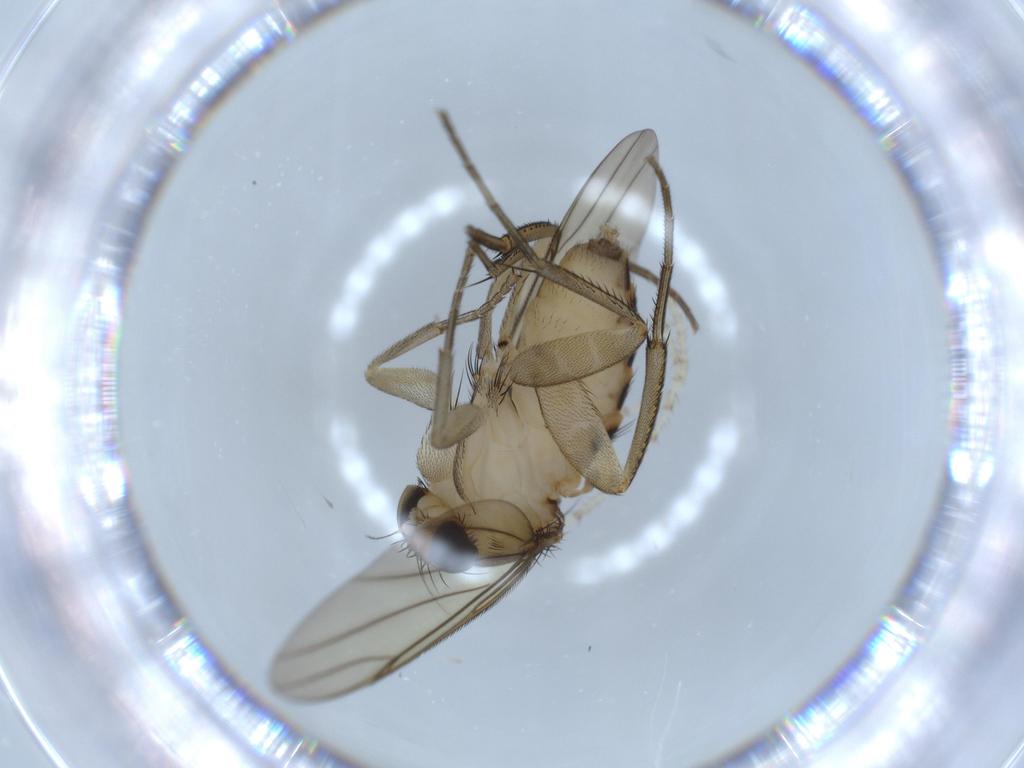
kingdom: Animalia
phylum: Arthropoda
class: Insecta
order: Diptera
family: Phoridae
